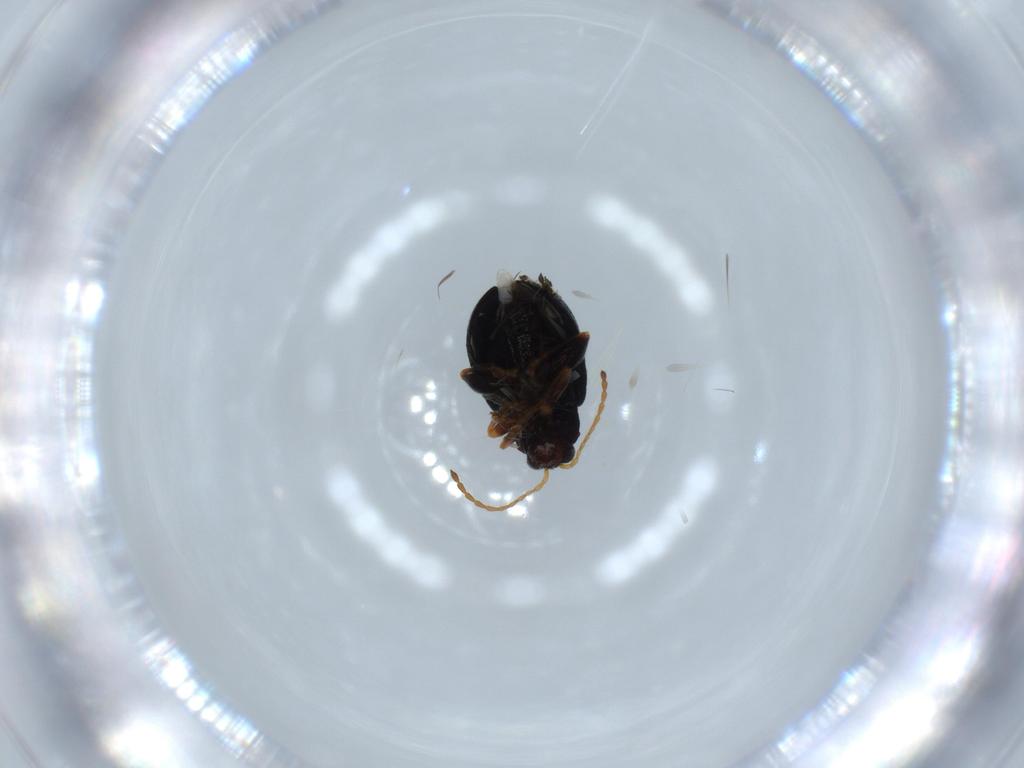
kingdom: Animalia
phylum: Arthropoda
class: Insecta
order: Coleoptera
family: Chrysomelidae
